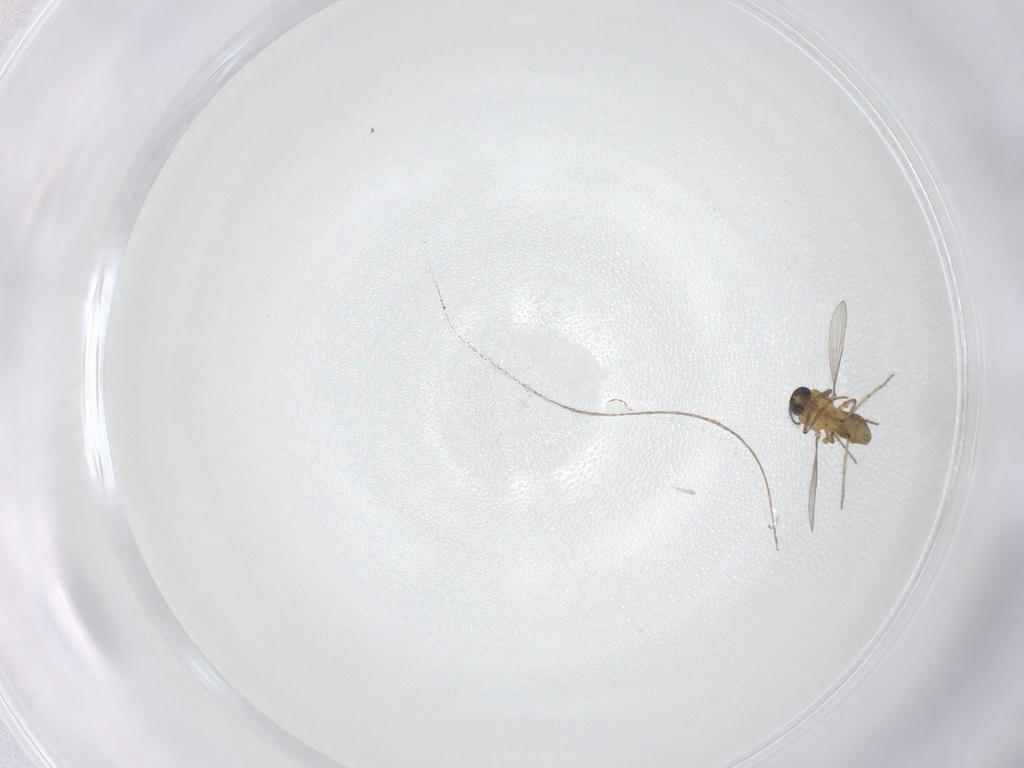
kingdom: Animalia
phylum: Arthropoda
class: Insecta
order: Diptera
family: Ceratopogonidae
